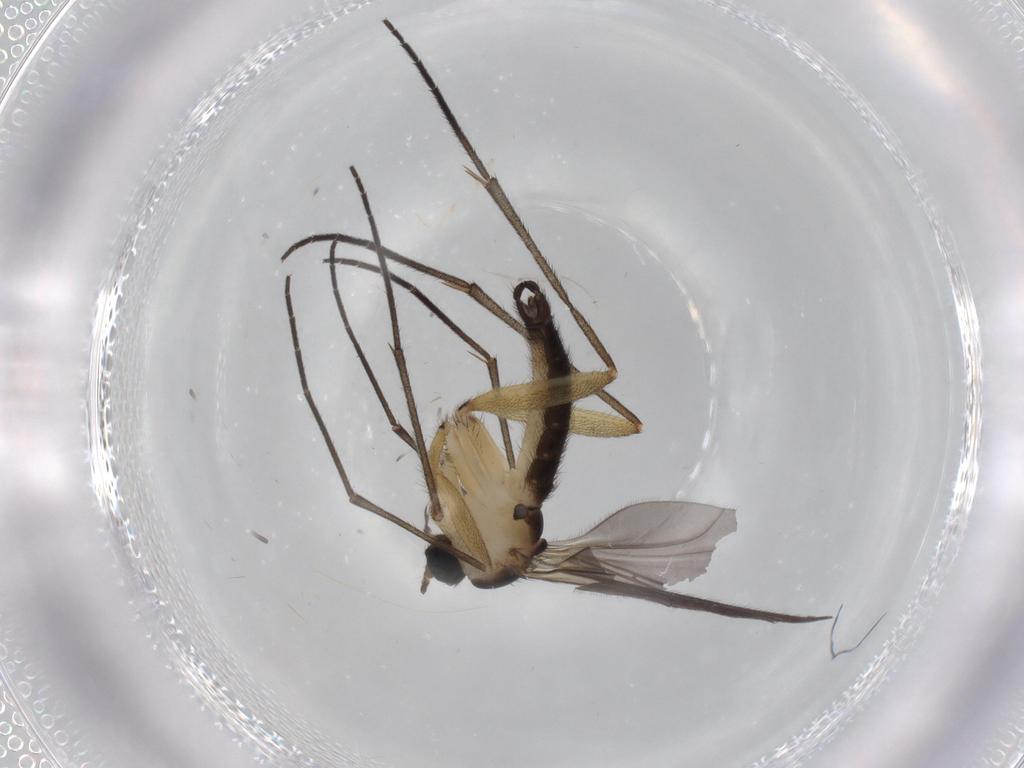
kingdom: Animalia
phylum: Arthropoda
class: Insecta
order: Diptera
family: Sciaridae
